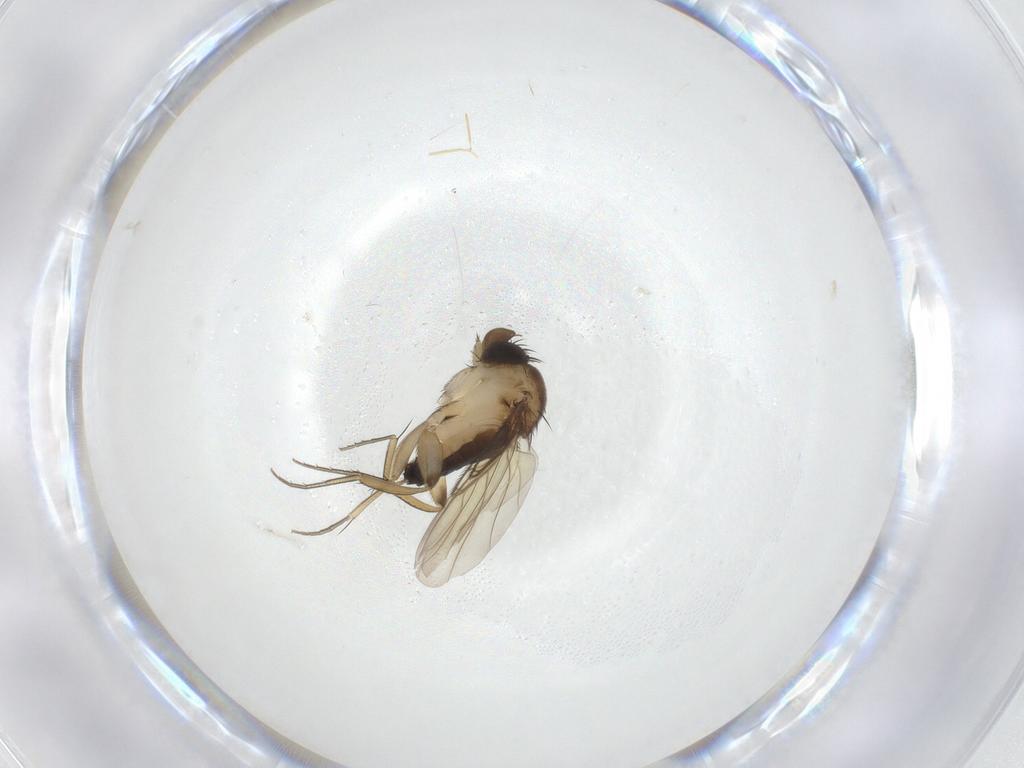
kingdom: Animalia
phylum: Arthropoda
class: Insecta
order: Diptera
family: Phoridae
